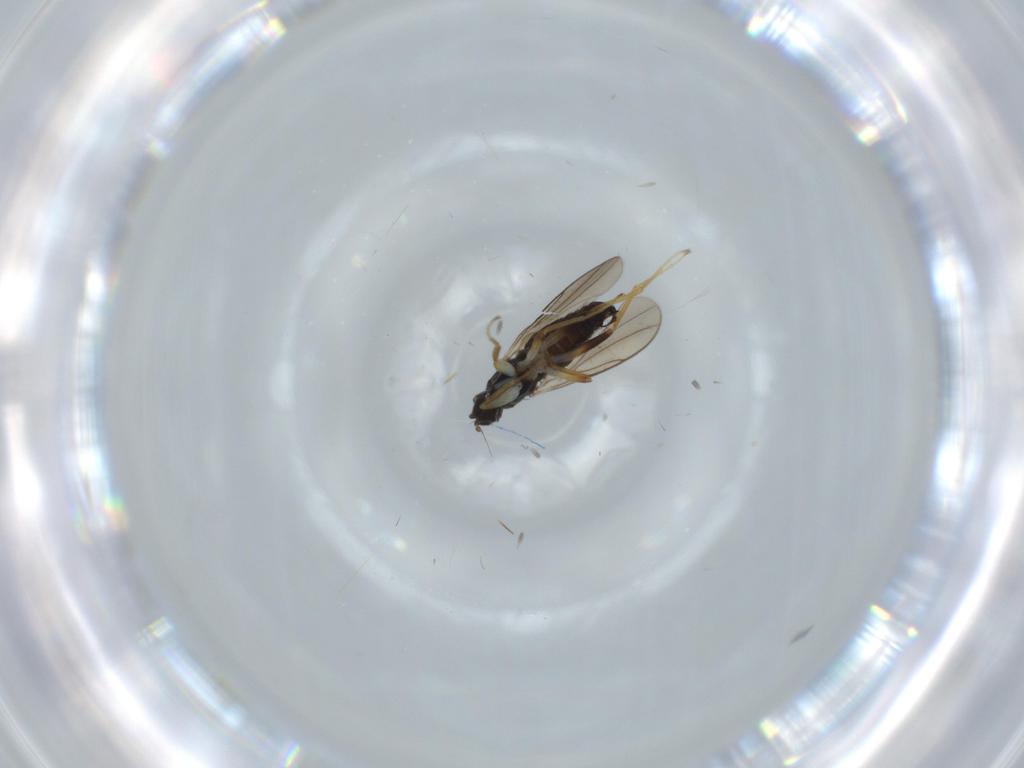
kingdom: Animalia
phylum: Arthropoda
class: Insecta
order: Diptera
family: Hybotidae
